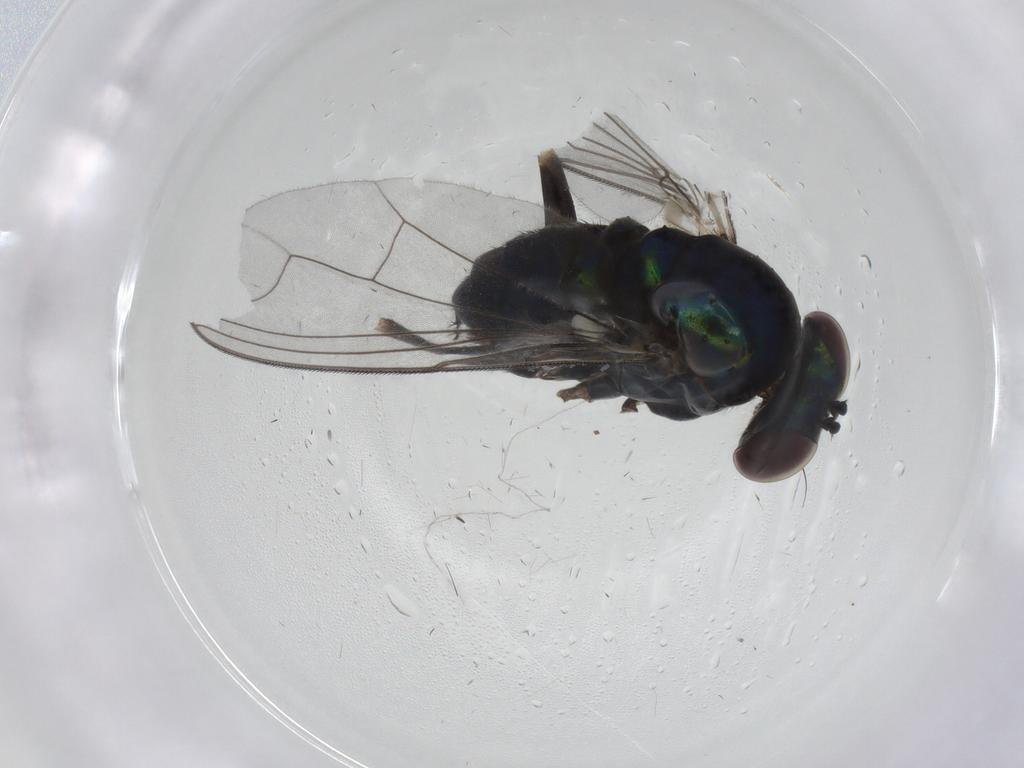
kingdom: Animalia
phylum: Arthropoda
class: Insecta
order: Diptera
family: Dolichopodidae
